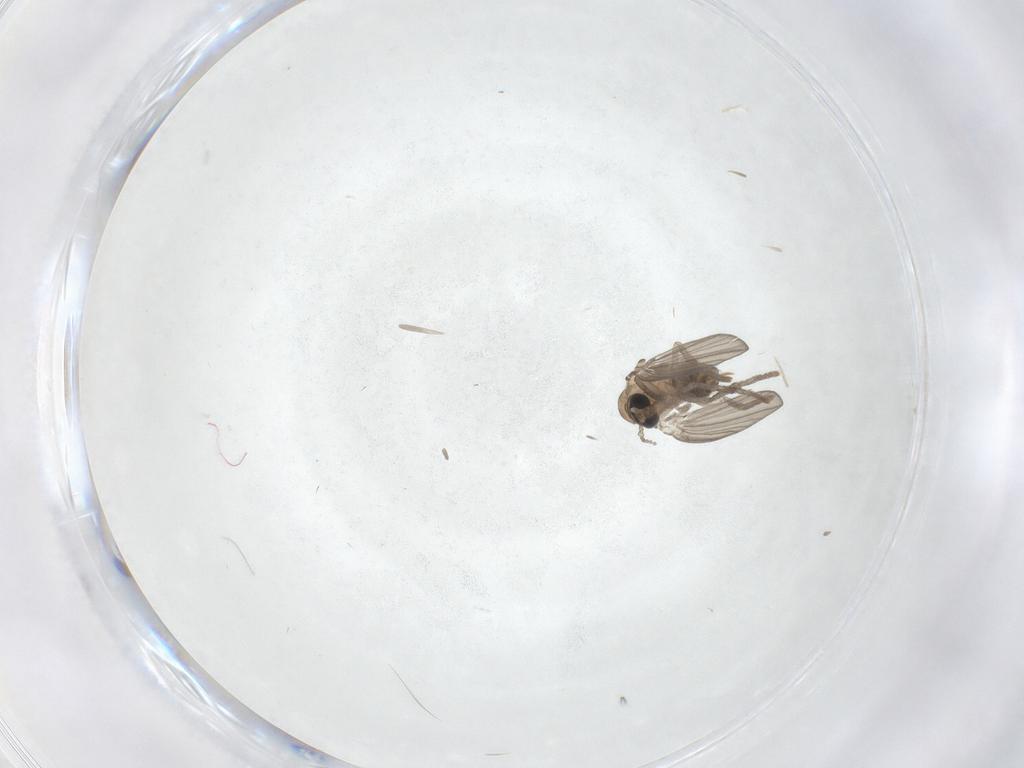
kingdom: Animalia
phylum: Arthropoda
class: Insecta
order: Diptera
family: Psychodidae
